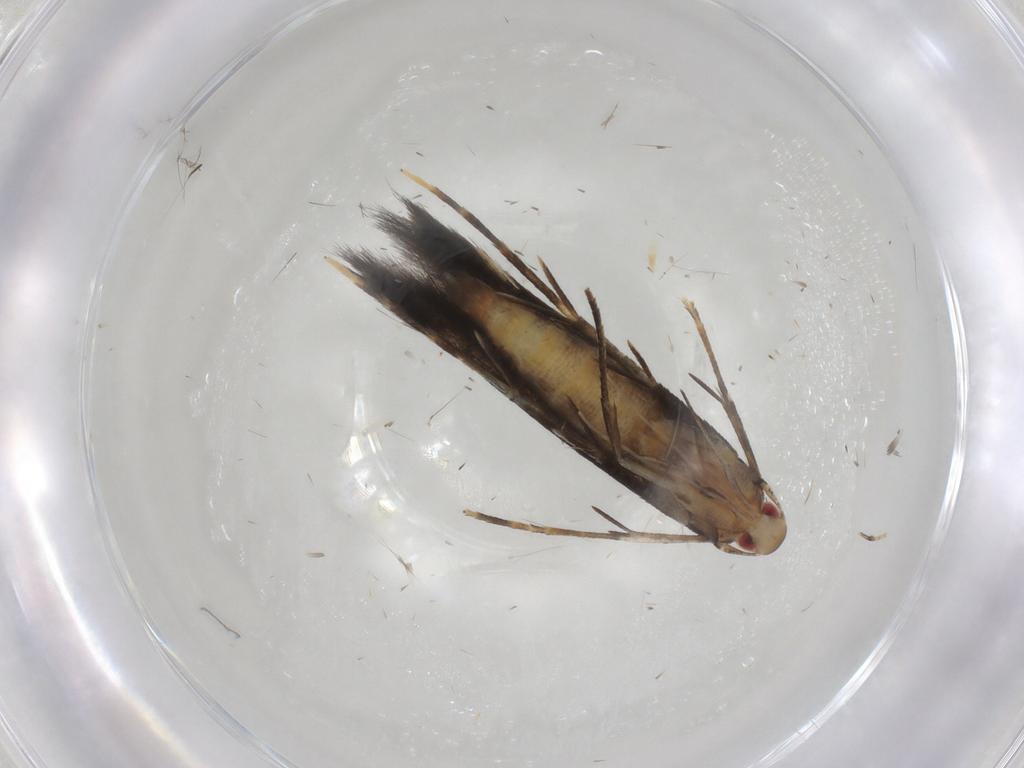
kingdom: Animalia
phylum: Arthropoda
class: Insecta
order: Lepidoptera
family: Cosmopterigidae
